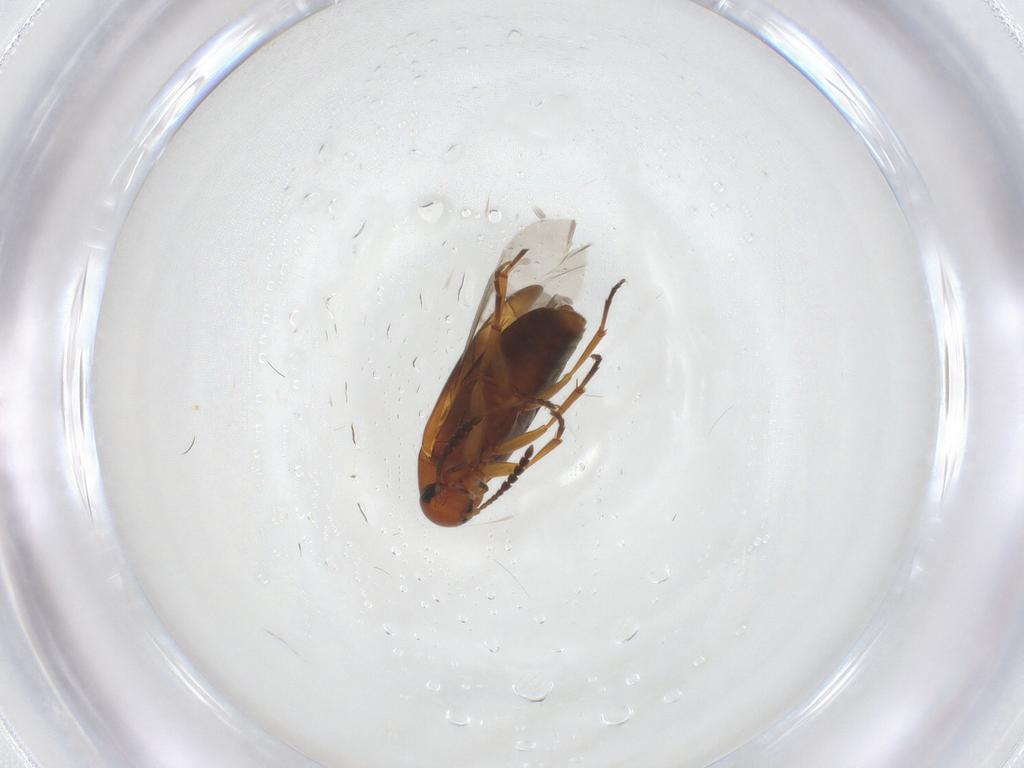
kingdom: Animalia
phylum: Arthropoda
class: Insecta
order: Coleoptera
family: Scraptiidae
